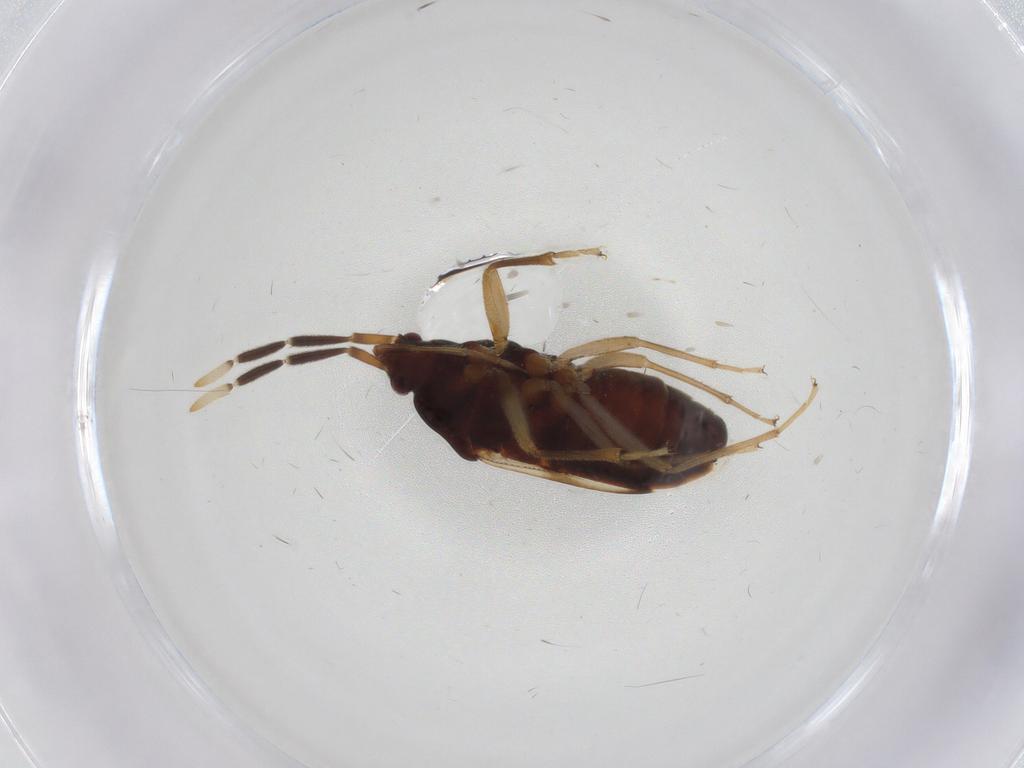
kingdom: Animalia
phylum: Arthropoda
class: Insecta
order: Hemiptera
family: Rhyparochromidae
